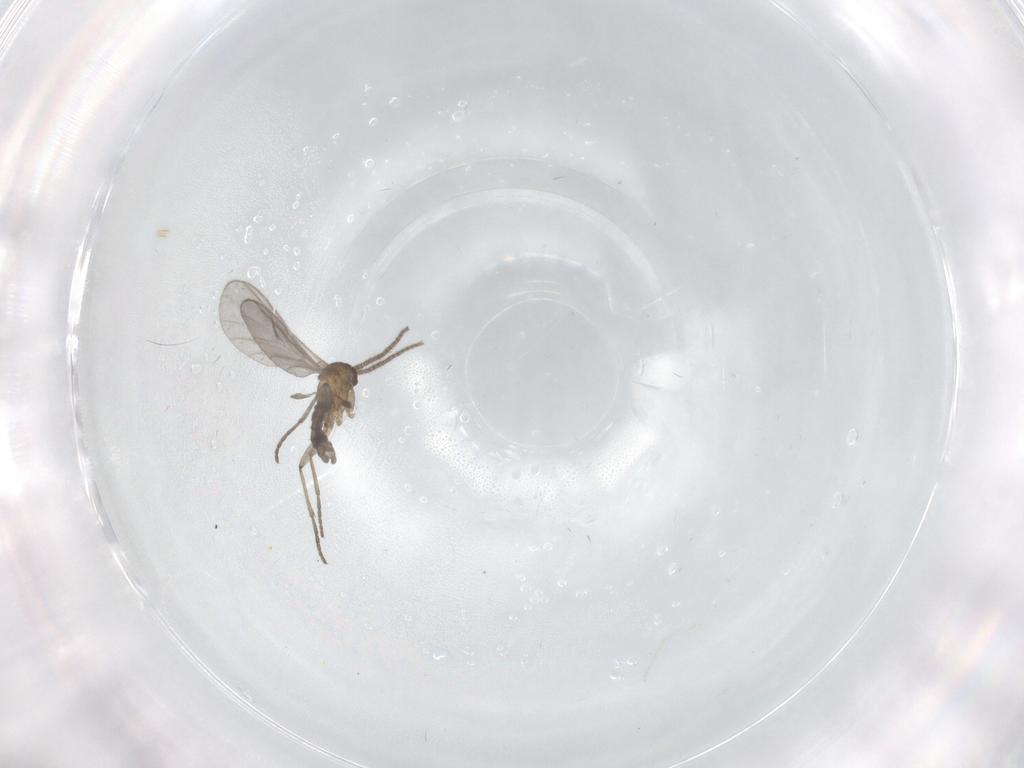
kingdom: Animalia
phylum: Arthropoda
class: Insecta
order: Diptera
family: Sciaridae
